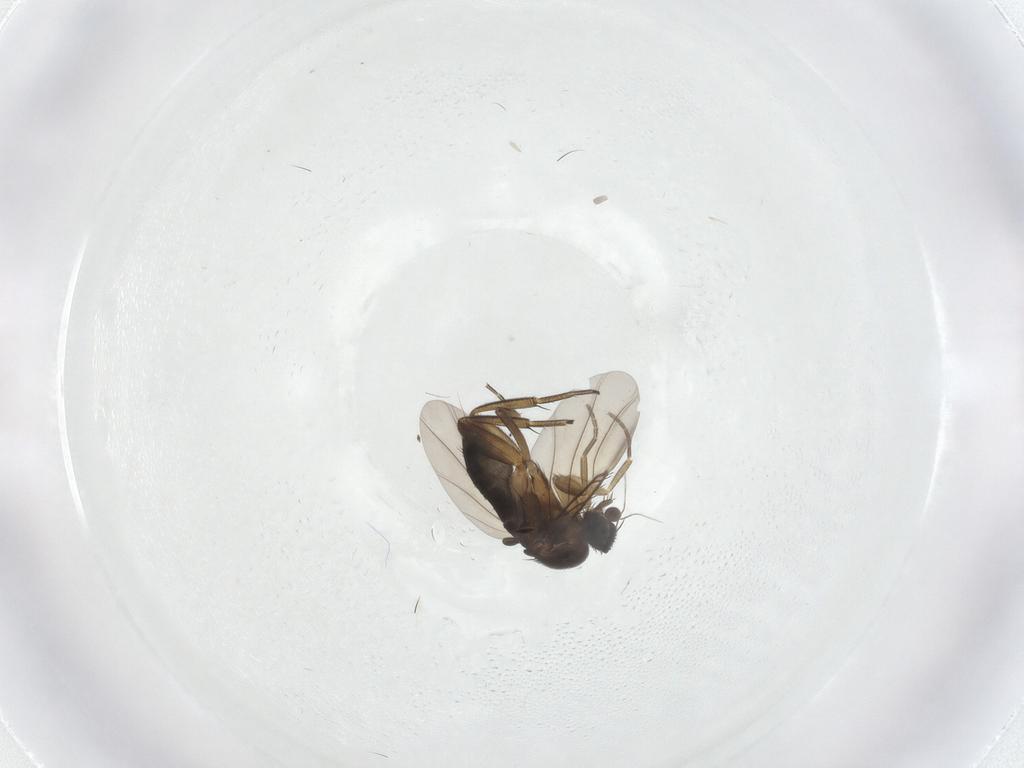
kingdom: Animalia
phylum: Arthropoda
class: Insecta
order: Diptera
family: Phoridae
